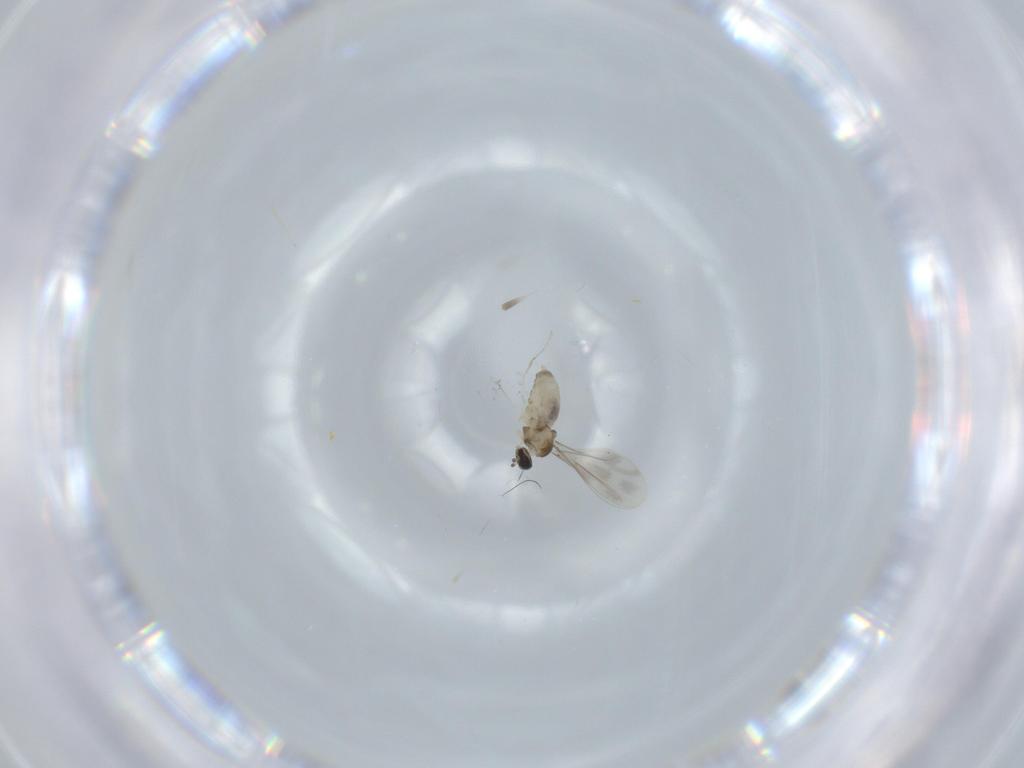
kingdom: Animalia
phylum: Arthropoda
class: Insecta
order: Diptera
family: Cecidomyiidae
